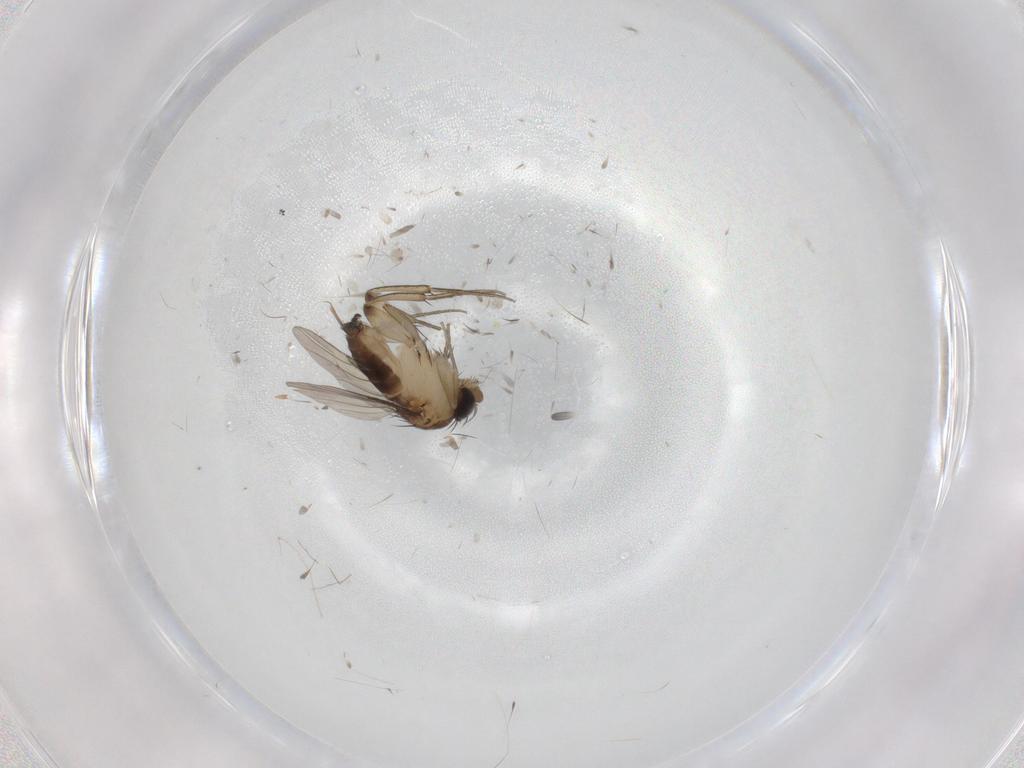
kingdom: Animalia
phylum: Arthropoda
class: Insecta
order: Diptera
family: Phoridae
